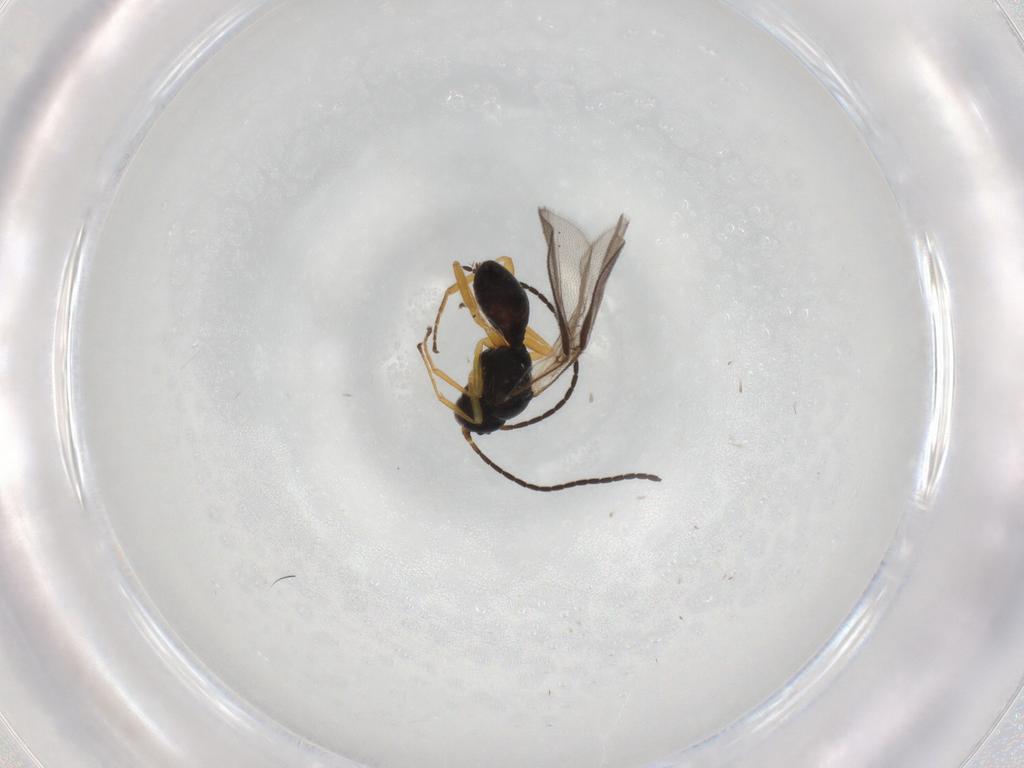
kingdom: Animalia
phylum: Arthropoda
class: Insecta
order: Hymenoptera
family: Braconidae
